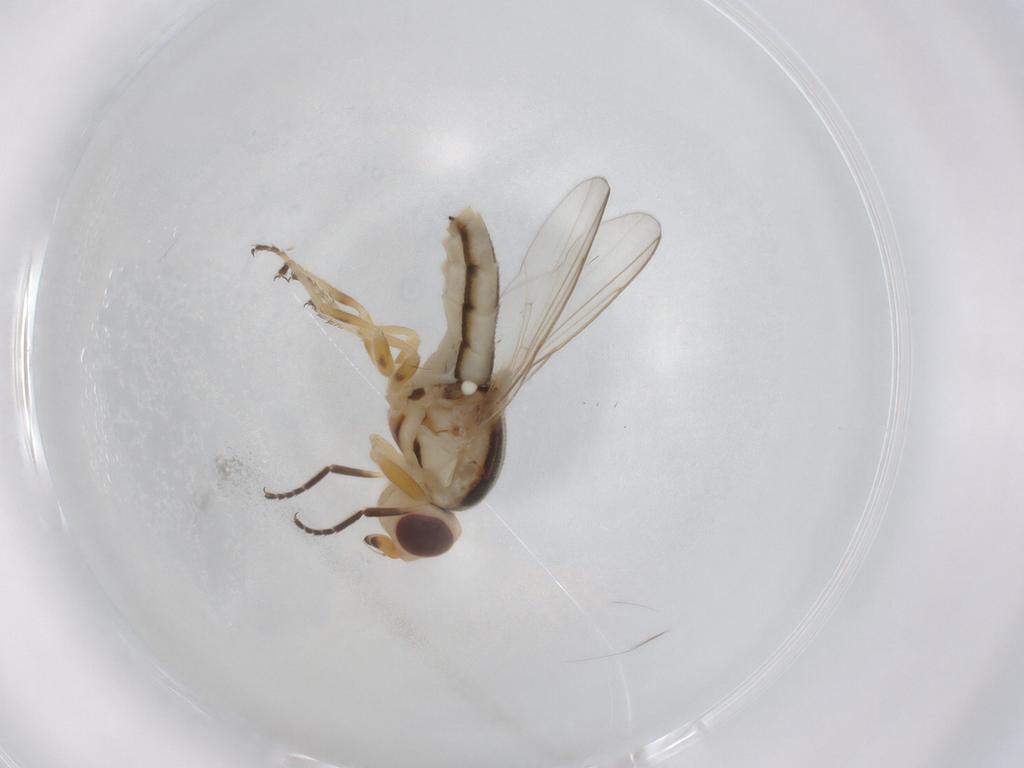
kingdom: Animalia
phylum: Arthropoda
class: Insecta
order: Diptera
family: Chloropidae
